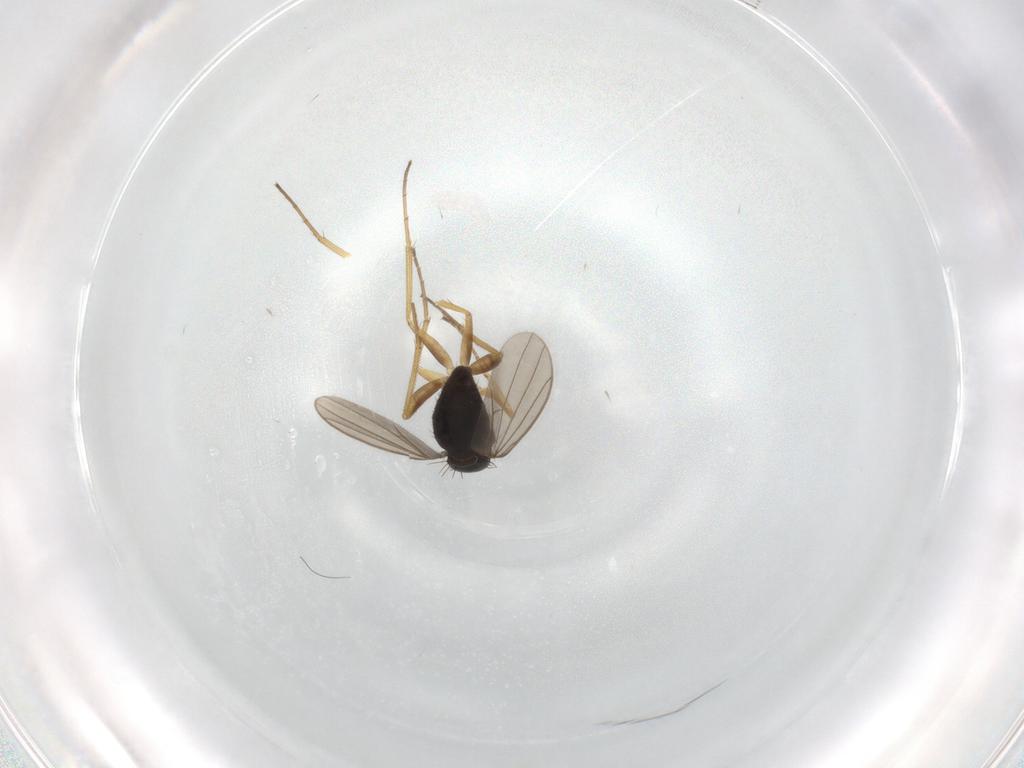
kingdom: Animalia
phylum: Arthropoda
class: Insecta
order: Diptera
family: Dolichopodidae
